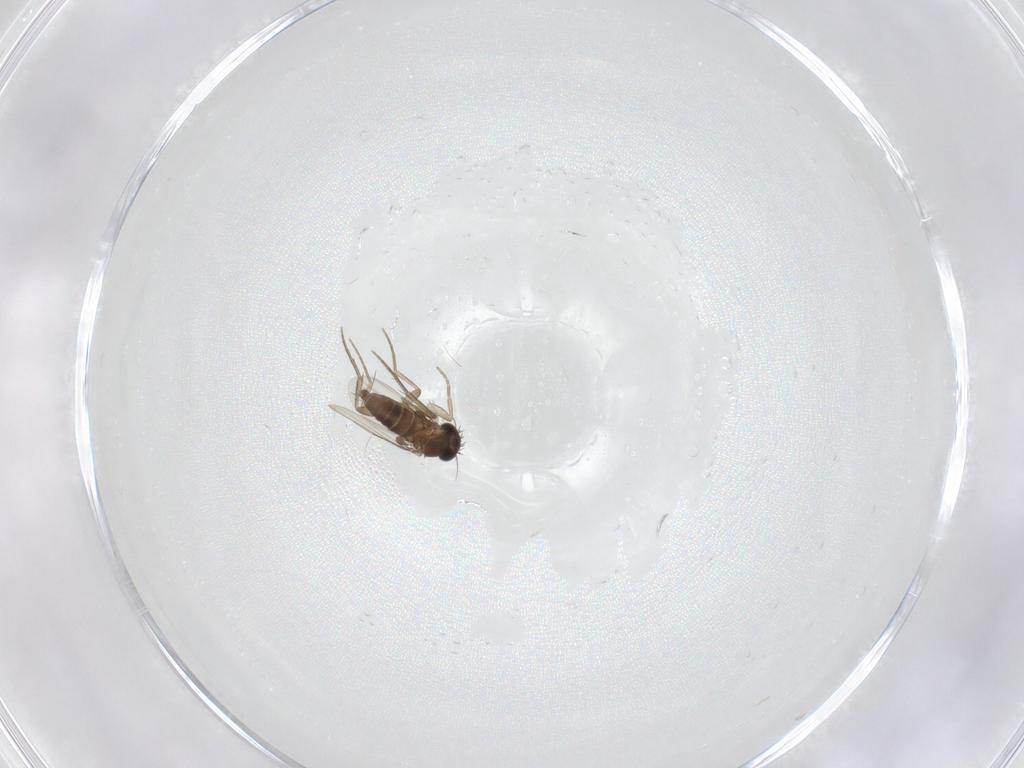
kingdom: Animalia
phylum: Arthropoda
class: Insecta
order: Diptera
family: Phoridae
